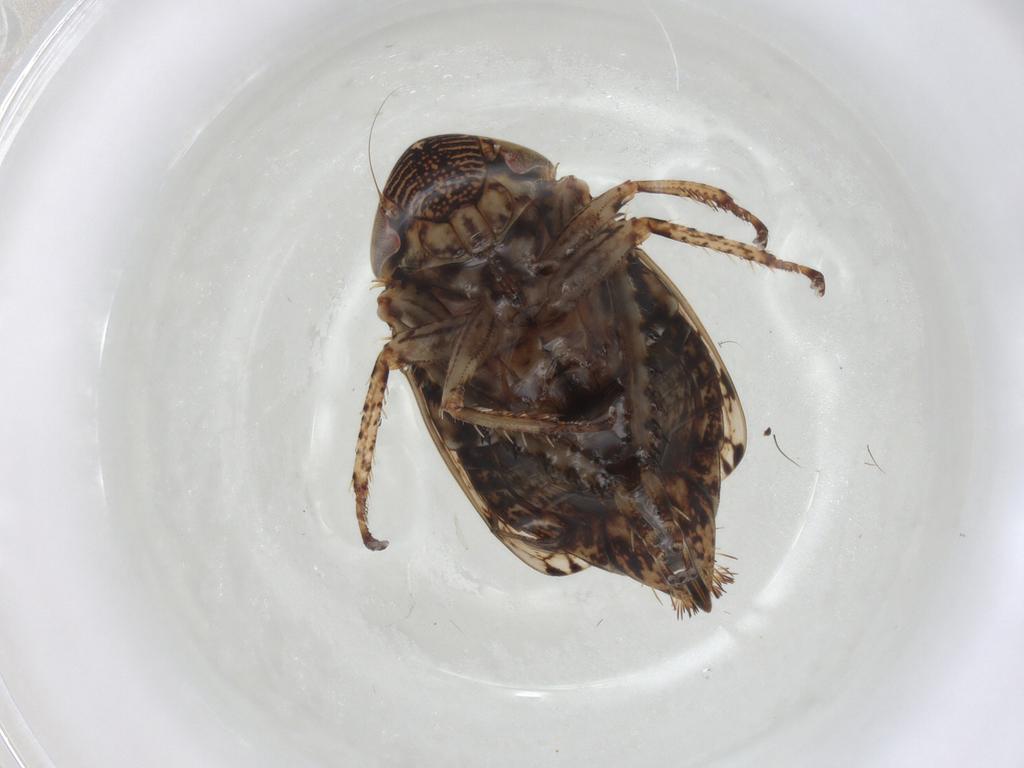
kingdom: Animalia
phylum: Arthropoda
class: Insecta
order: Hemiptera
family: Cicadellidae
